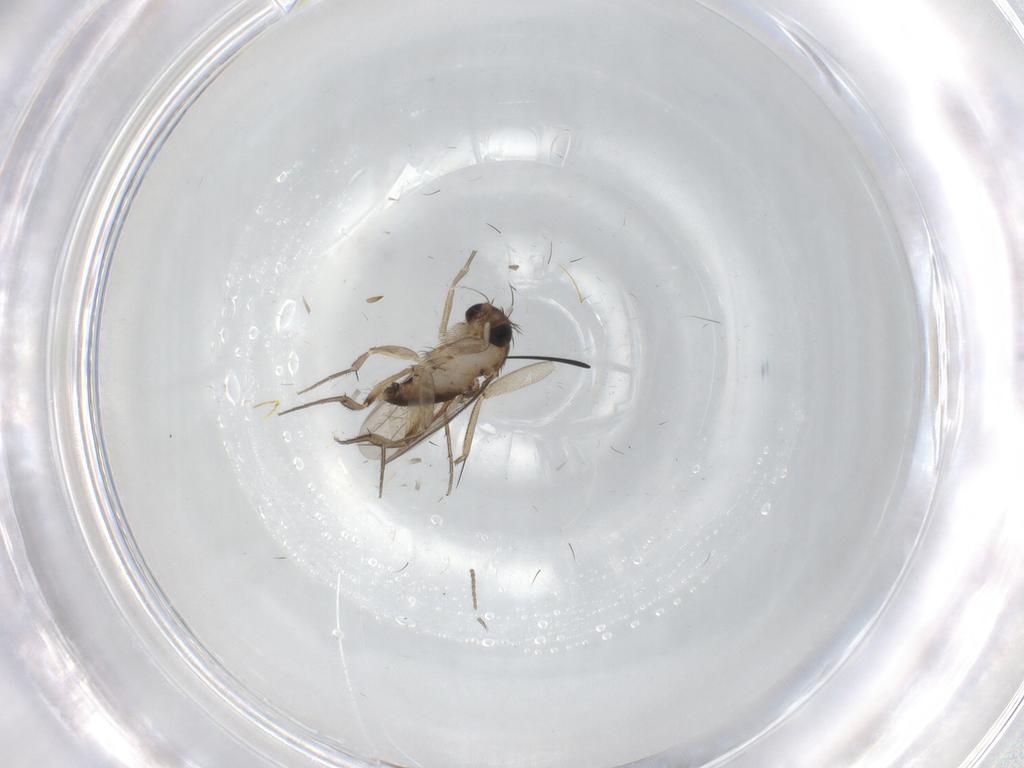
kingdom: Animalia
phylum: Arthropoda
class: Insecta
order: Diptera
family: Phoridae
